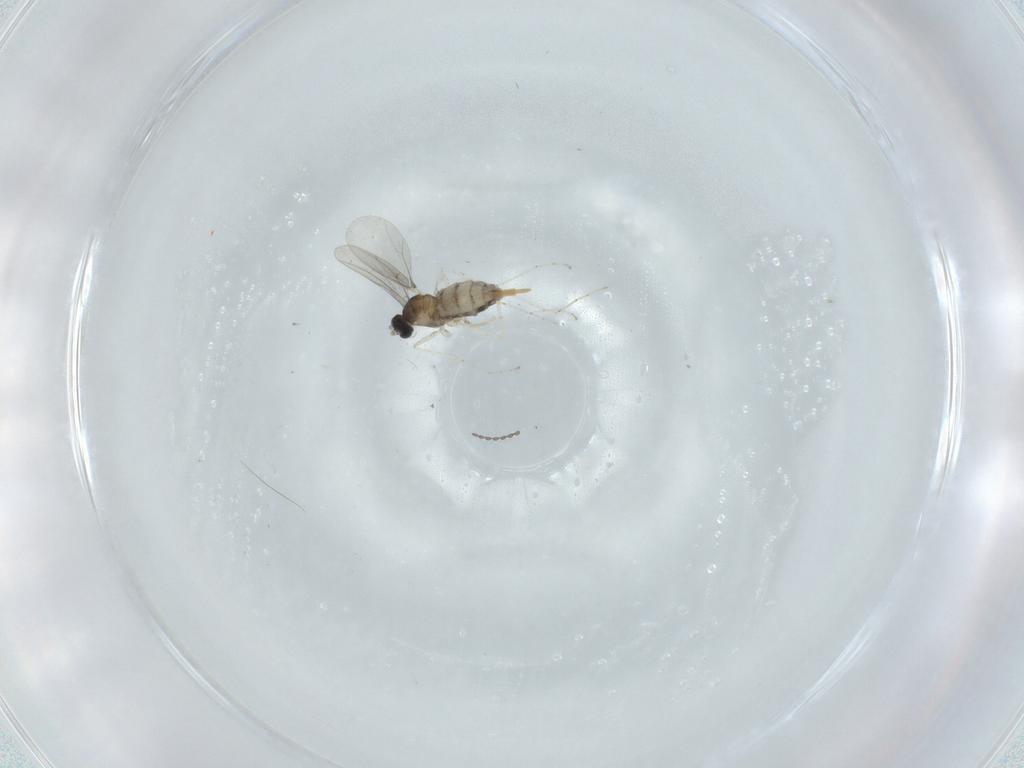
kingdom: Animalia
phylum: Arthropoda
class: Insecta
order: Diptera
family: Cecidomyiidae
